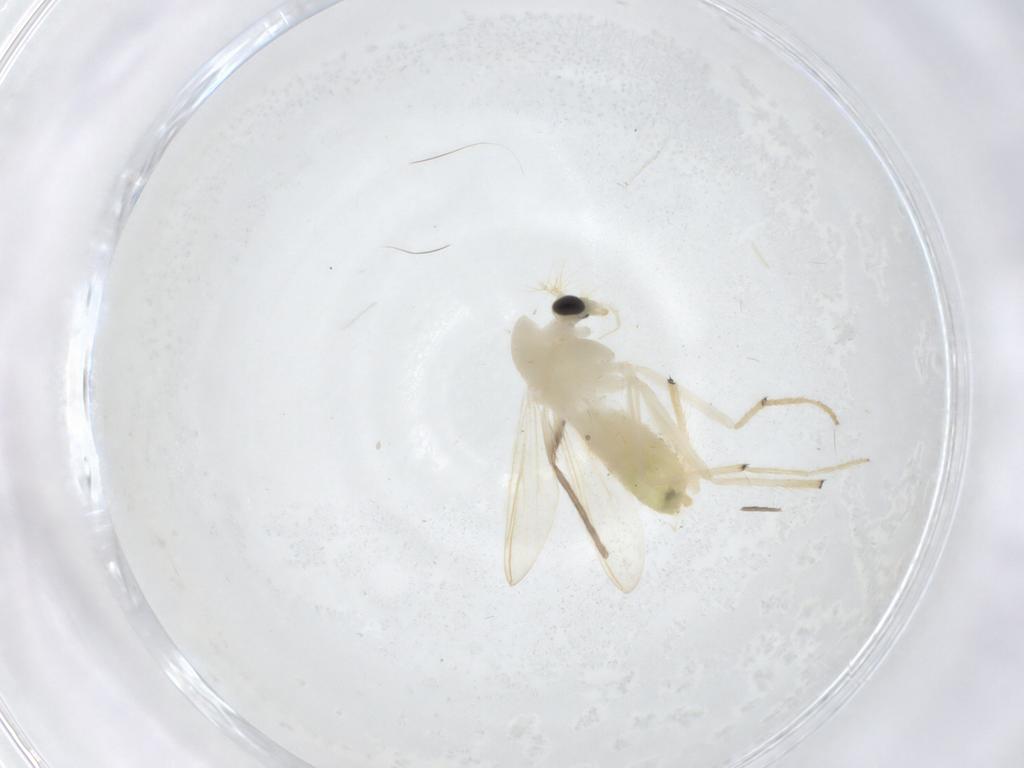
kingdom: Animalia
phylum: Arthropoda
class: Insecta
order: Diptera
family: Chironomidae
